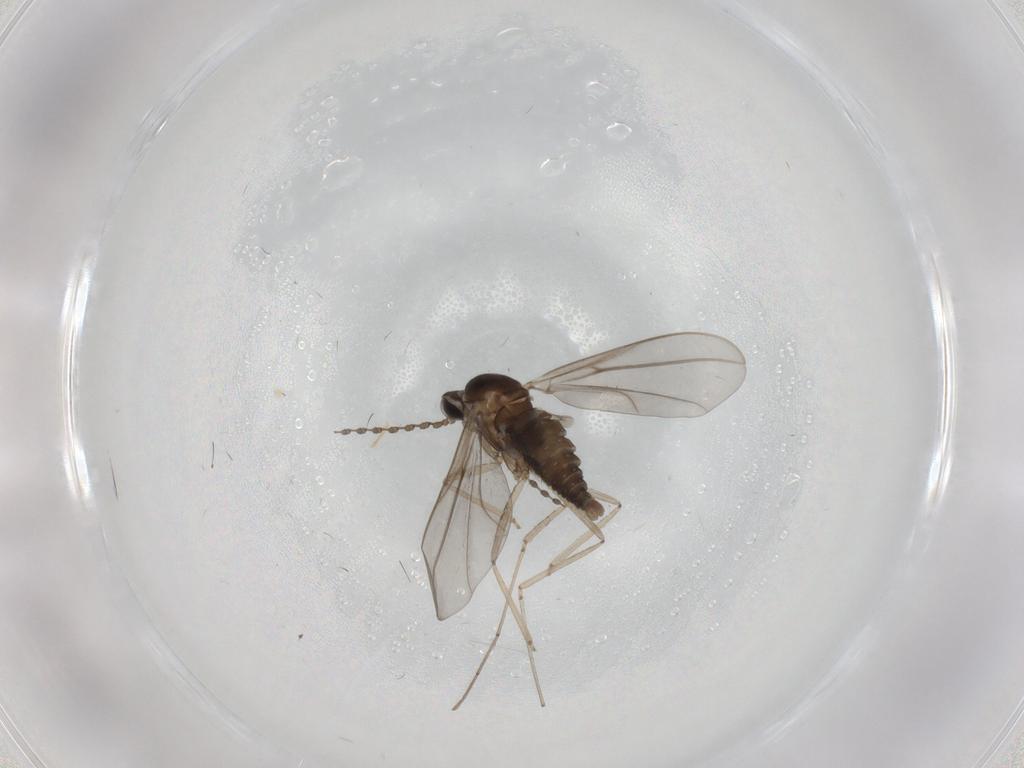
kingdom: Animalia
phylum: Arthropoda
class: Insecta
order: Diptera
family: Cecidomyiidae
